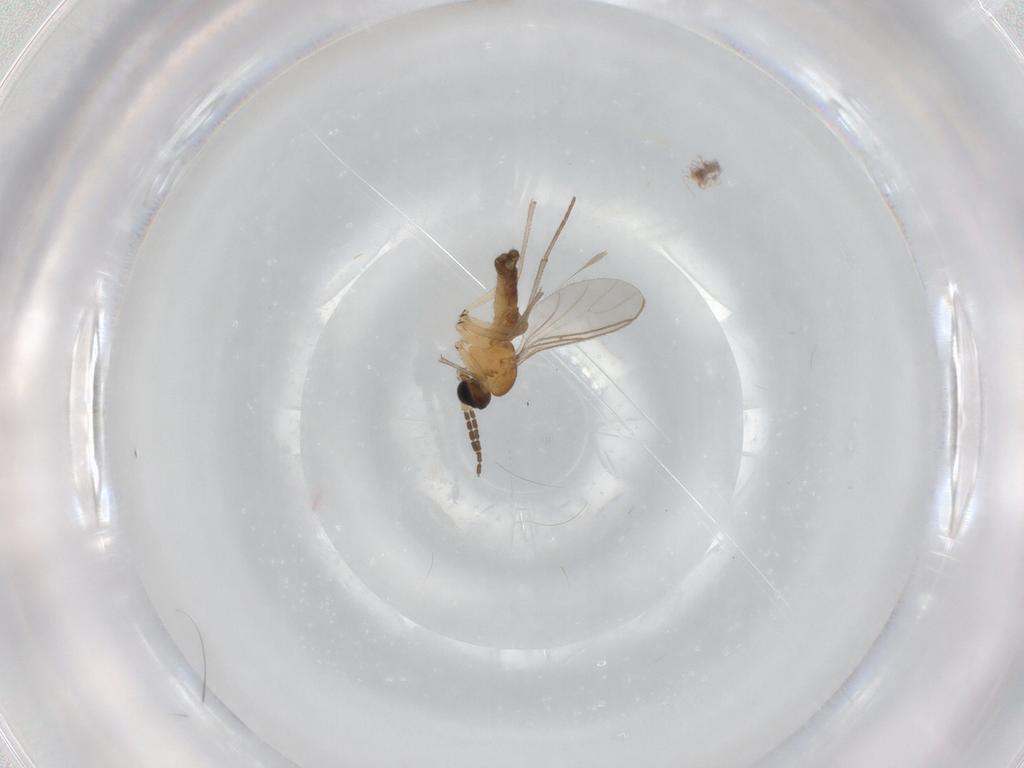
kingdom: Animalia
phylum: Arthropoda
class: Insecta
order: Diptera
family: Sciaridae
